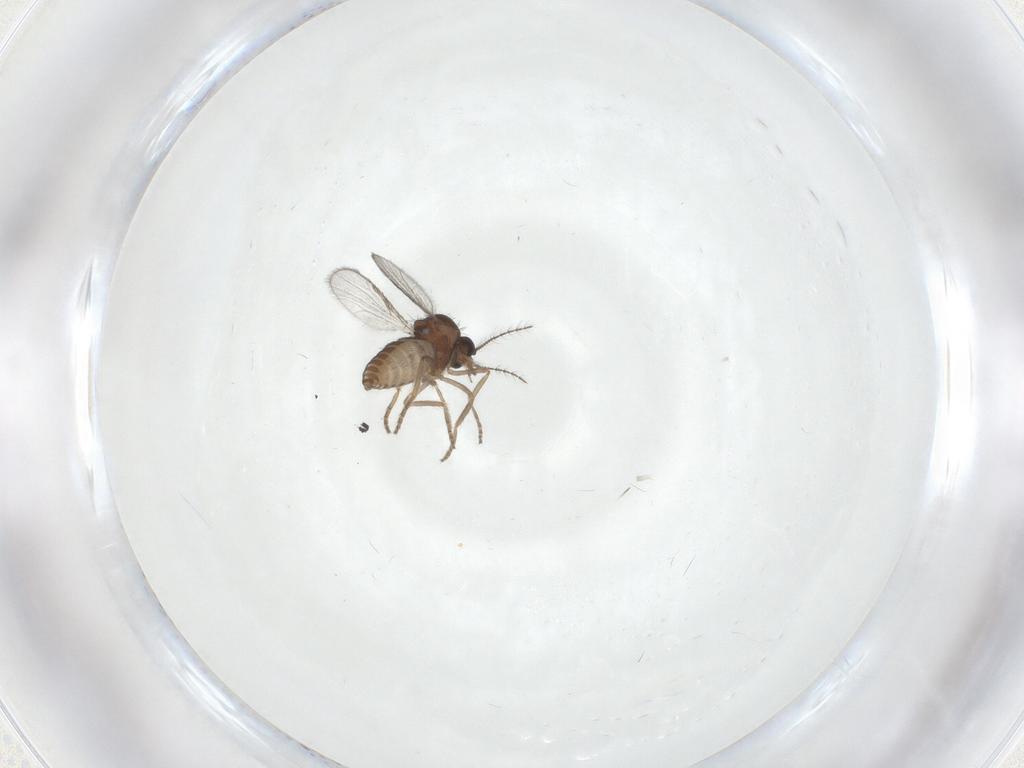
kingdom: Animalia
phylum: Arthropoda
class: Insecta
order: Diptera
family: Ceratopogonidae
